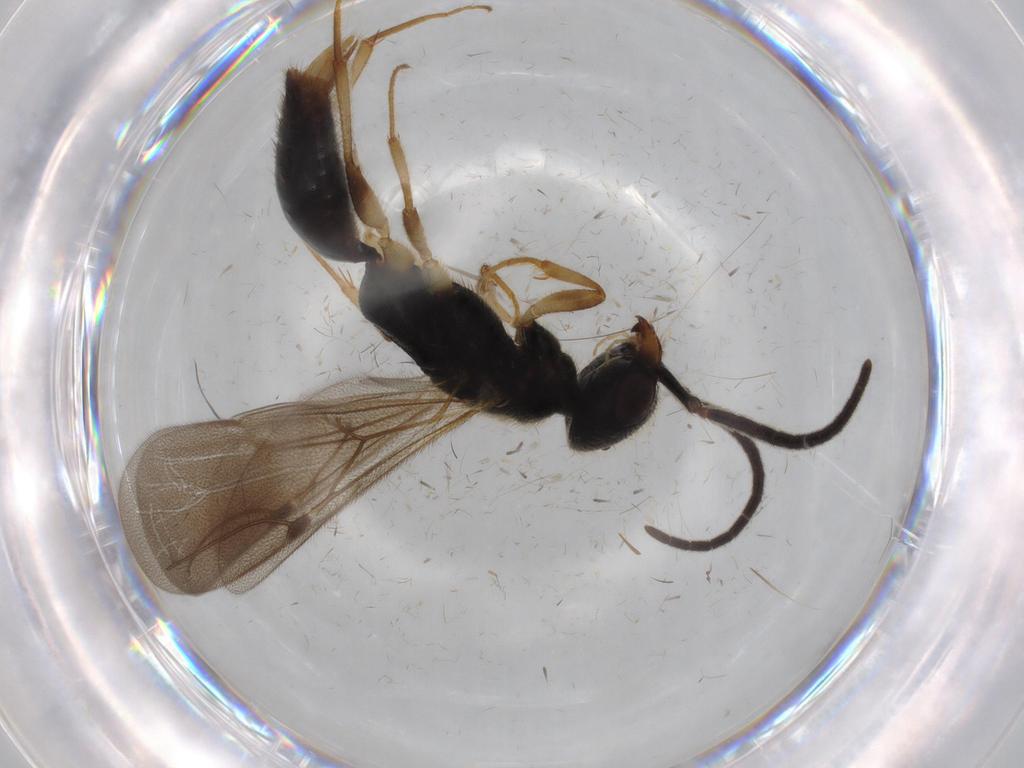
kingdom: Animalia
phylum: Arthropoda
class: Insecta
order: Hymenoptera
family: Bethylidae
